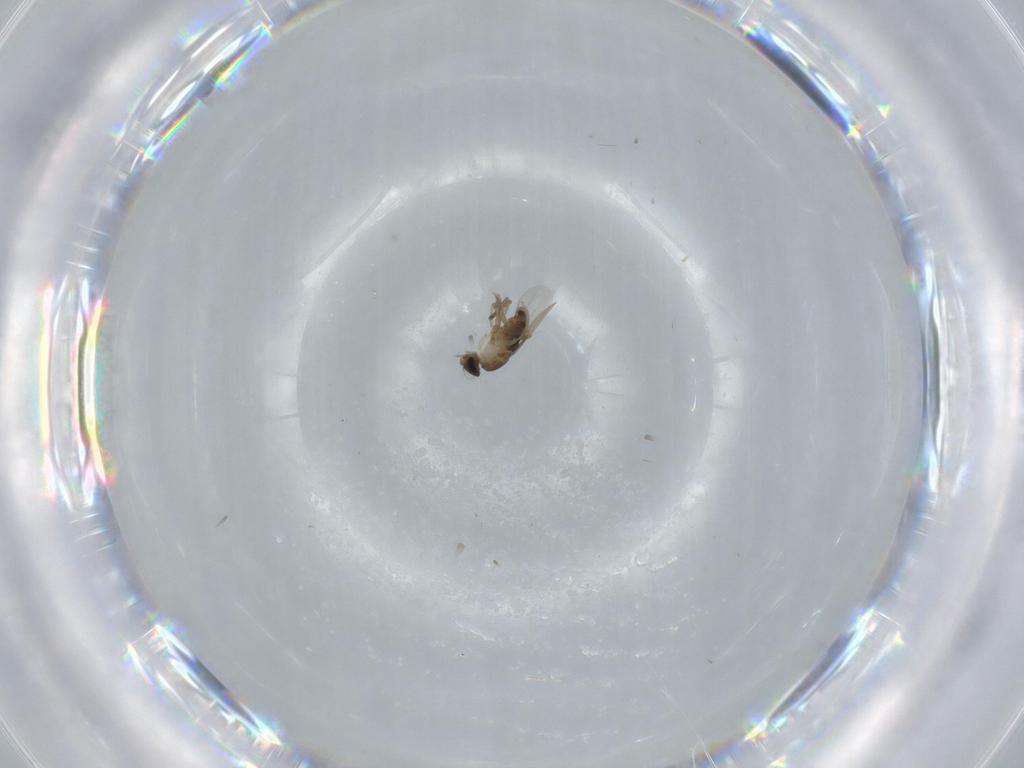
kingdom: Animalia
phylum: Arthropoda
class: Insecta
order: Diptera
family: Phoridae
